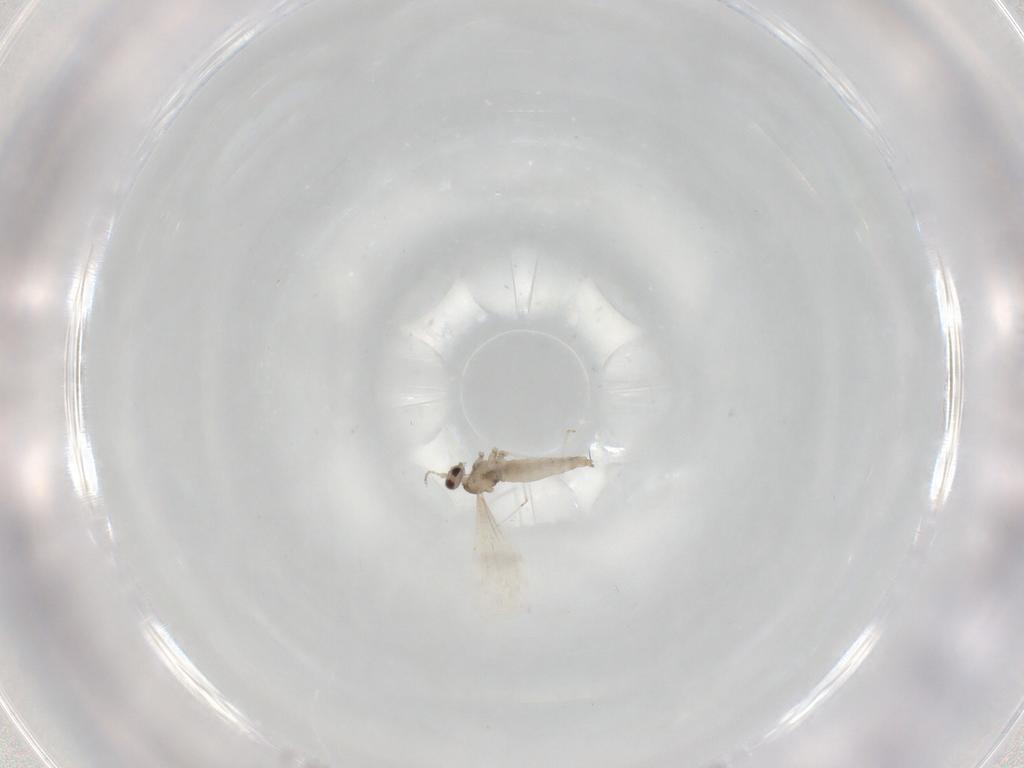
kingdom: Animalia
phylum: Arthropoda
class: Insecta
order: Diptera
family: Cecidomyiidae
